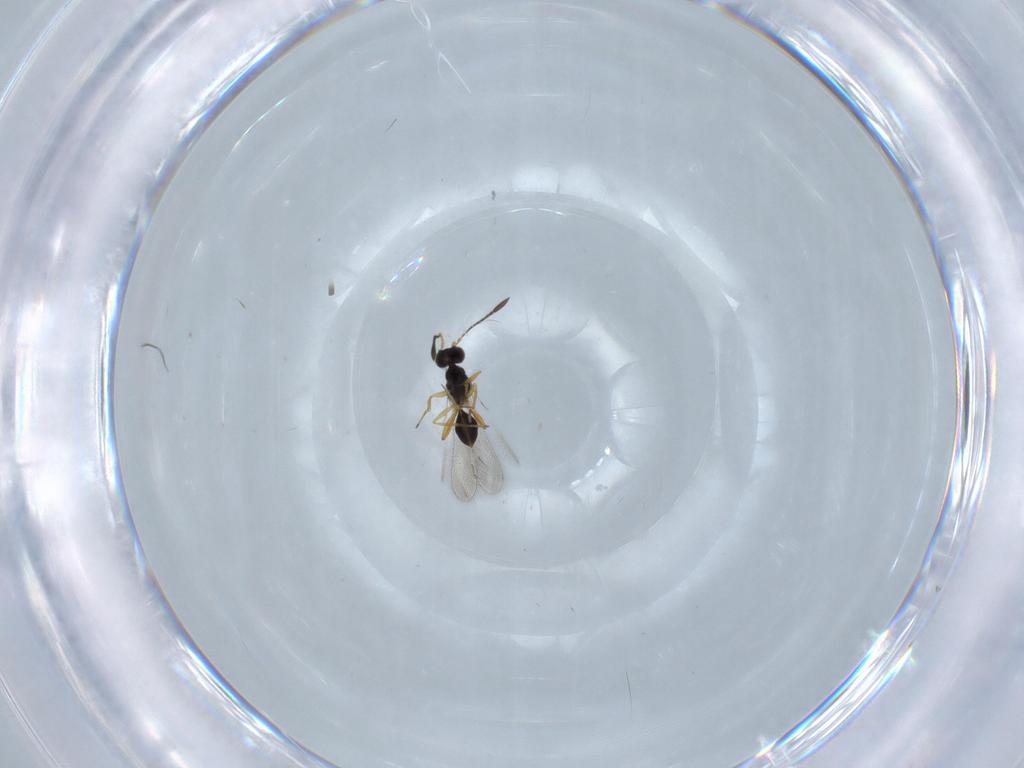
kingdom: Animalia
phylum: Arthropoda
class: Insecta
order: Hymenoptera
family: Mymaridae
